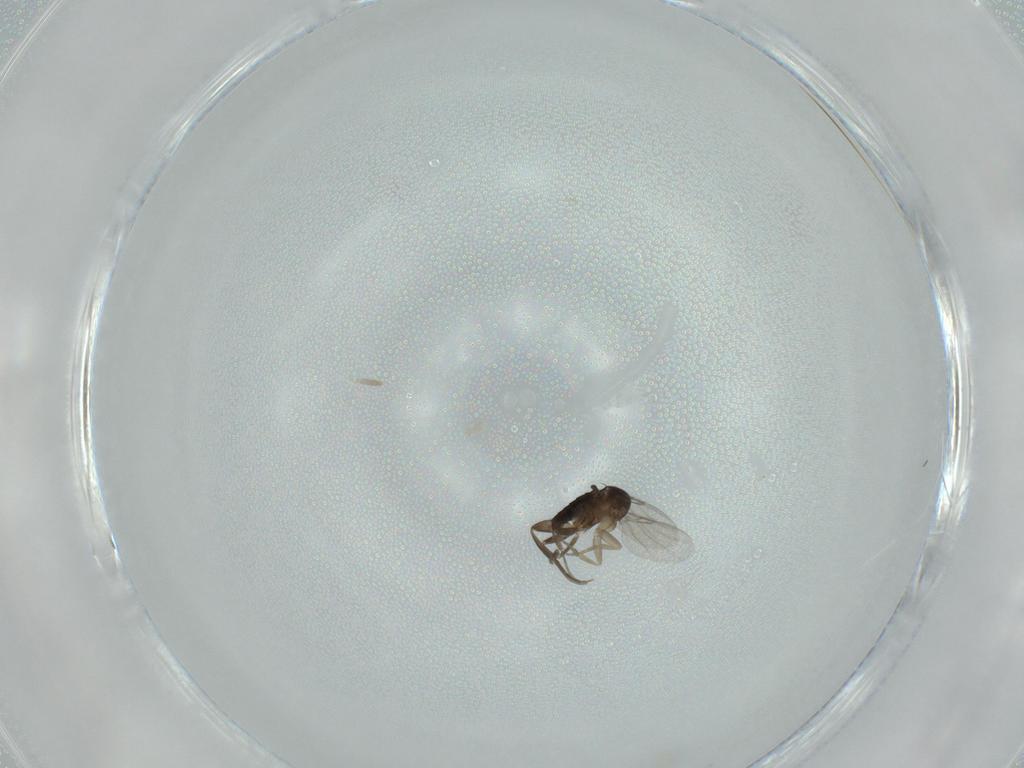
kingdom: Animalia
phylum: Arthropoda
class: Insecta
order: Diptera
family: Phoridae
